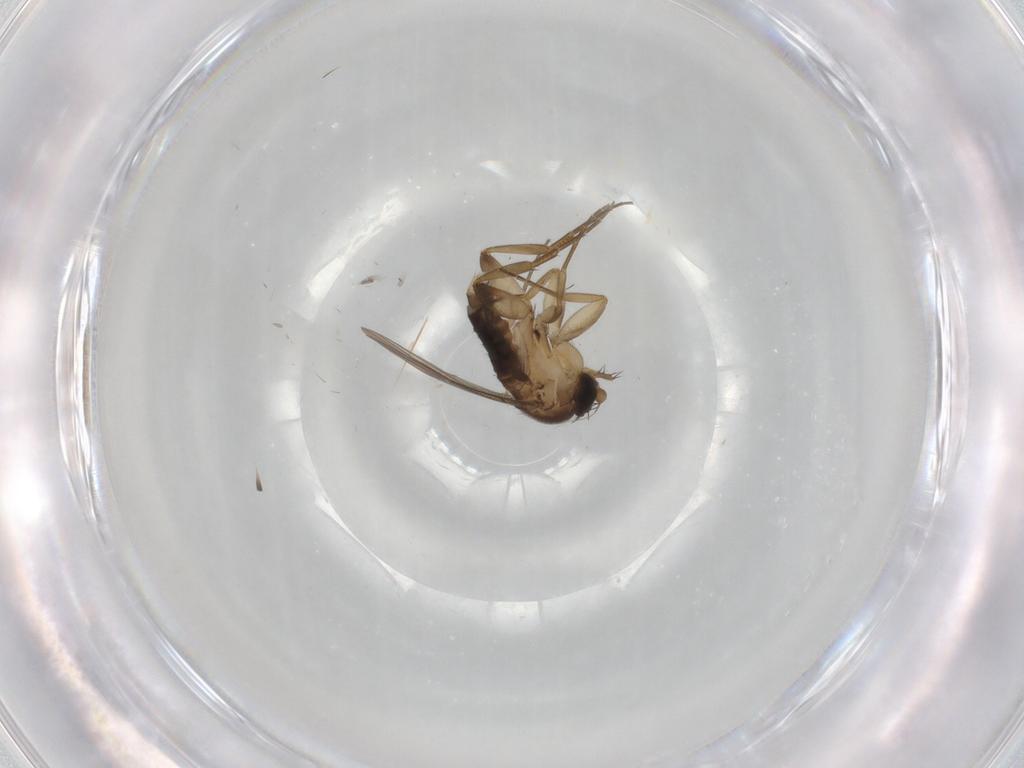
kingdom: Animalia
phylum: Arthropoda
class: Insecta
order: Diptera
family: Phoridae
